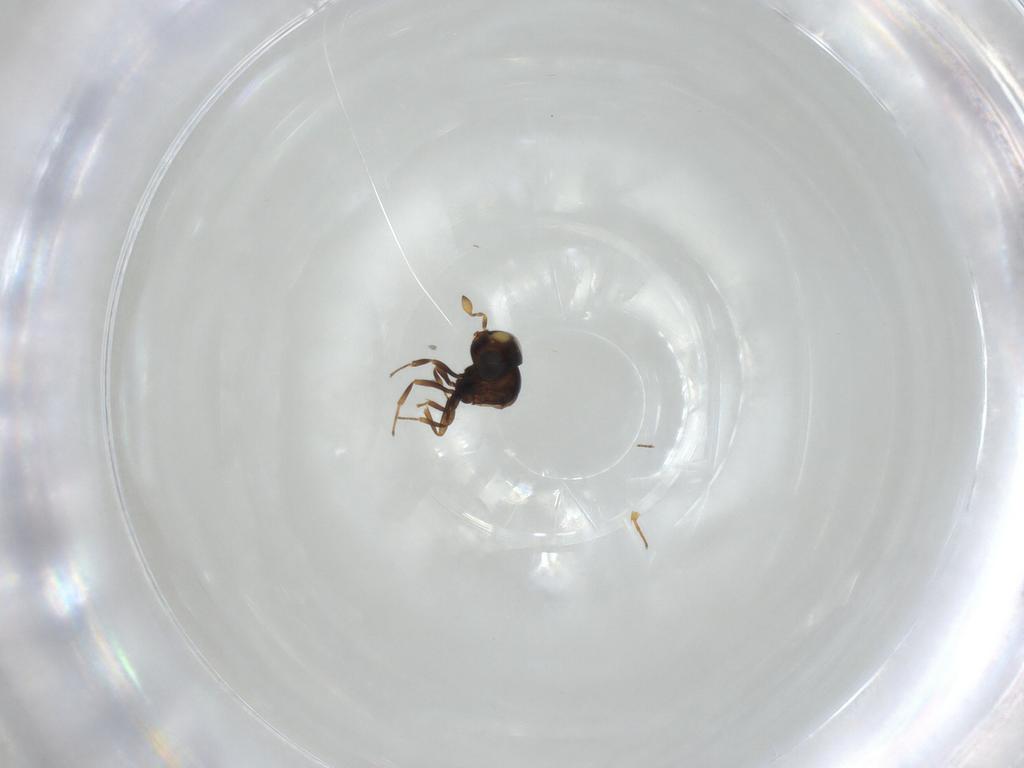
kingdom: Animalia
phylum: Arthropoda
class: Insecta
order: Hymenoptera
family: Scelionidae
